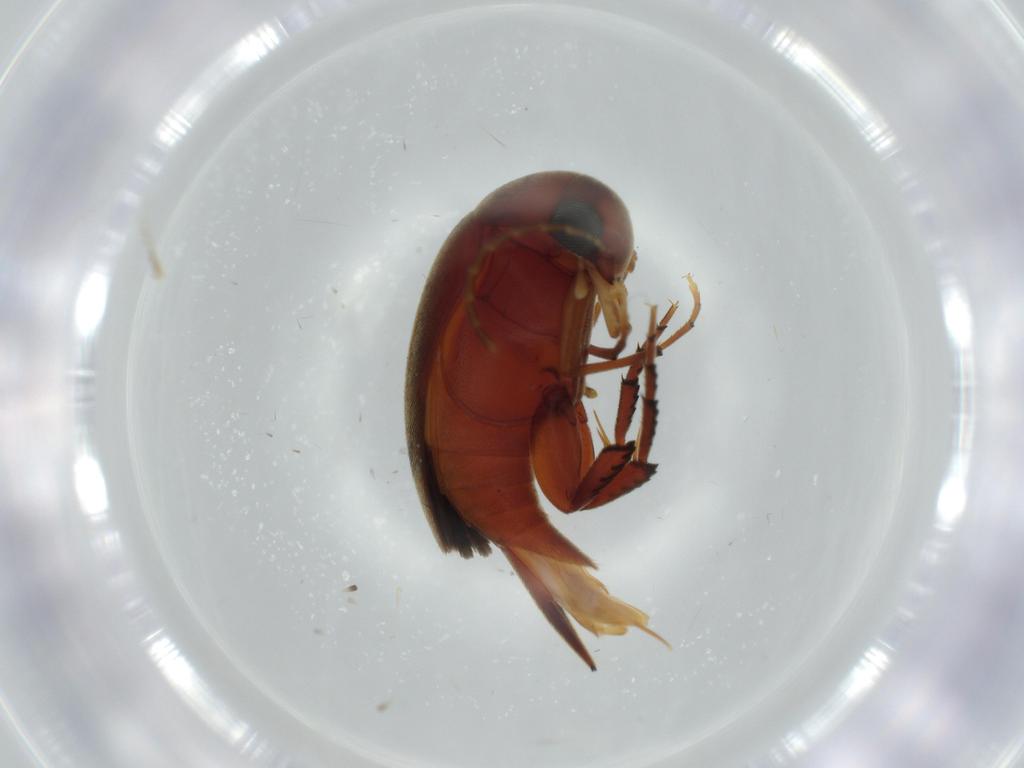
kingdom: Animalia
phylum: Arthropoda
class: Insecta
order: Coleoptera
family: Chrysomelidae
